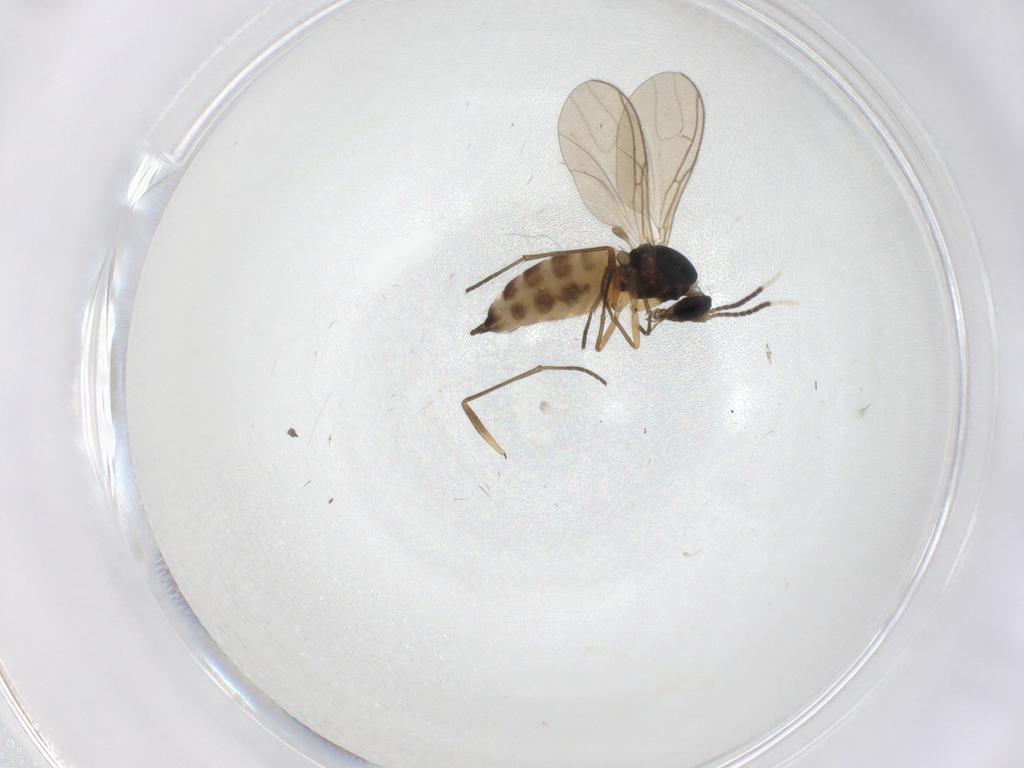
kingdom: Animalia
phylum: Arthropoda
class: Insecta
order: Diptera
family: Chironomidae
